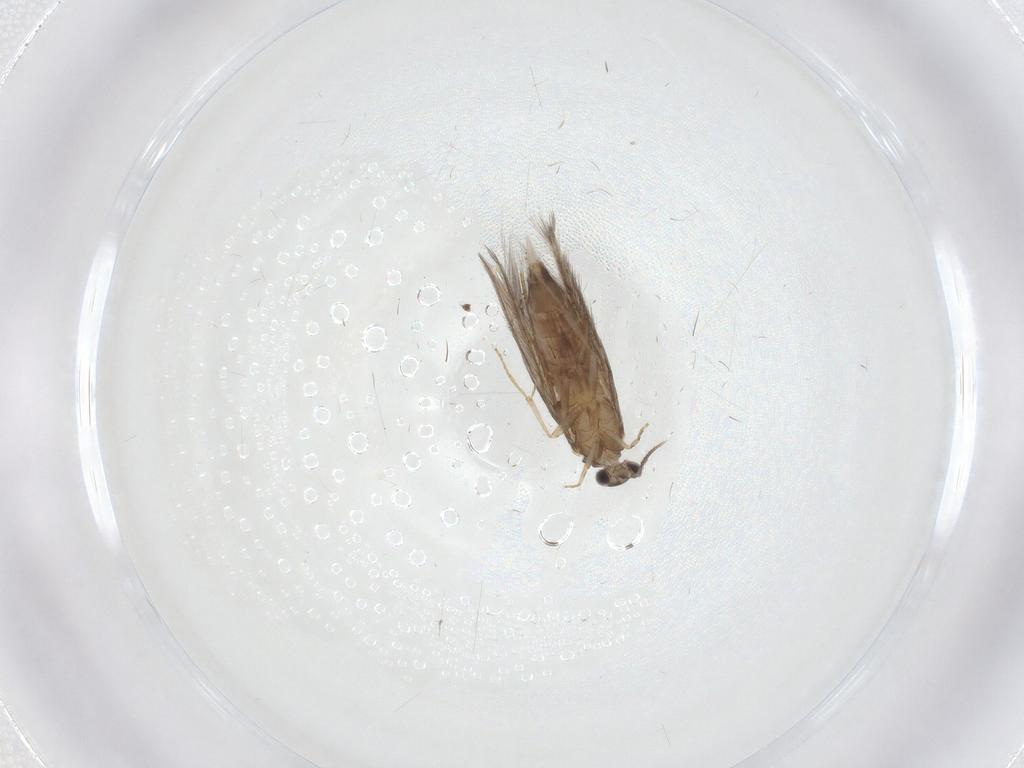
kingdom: Animalia
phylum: Arthropoda
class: Insecta
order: Trichoptera
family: Hydroptilidae
